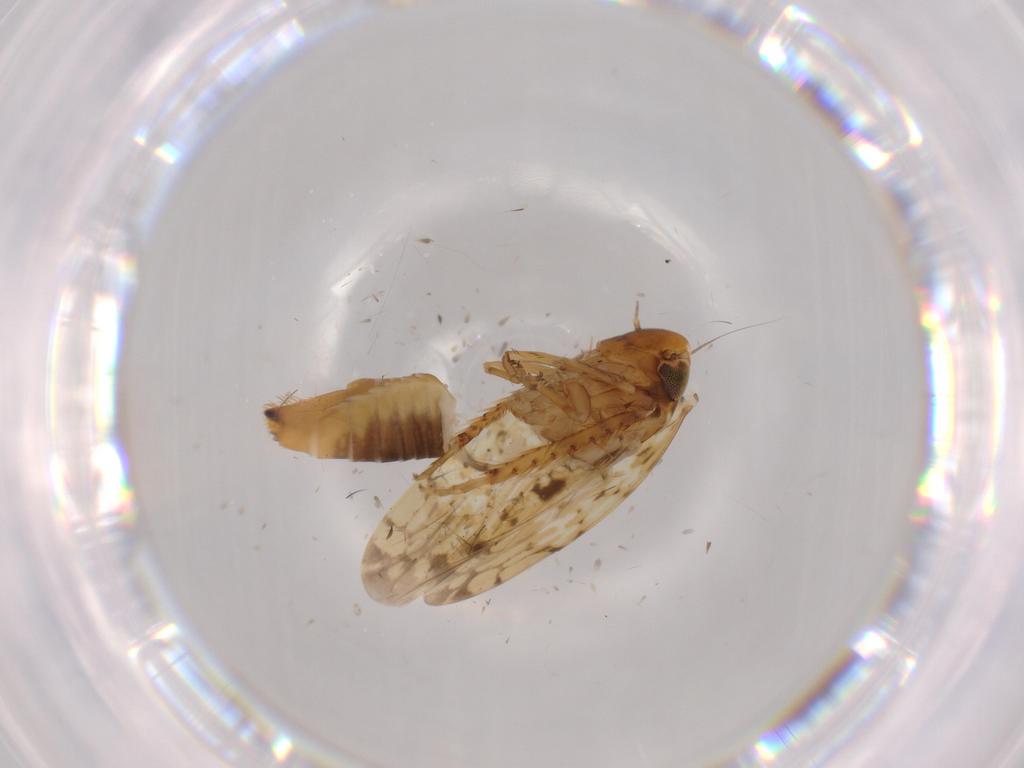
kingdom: Animalia
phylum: Arthropoda
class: Insecta
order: Hemiptera
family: Cicadellidae
